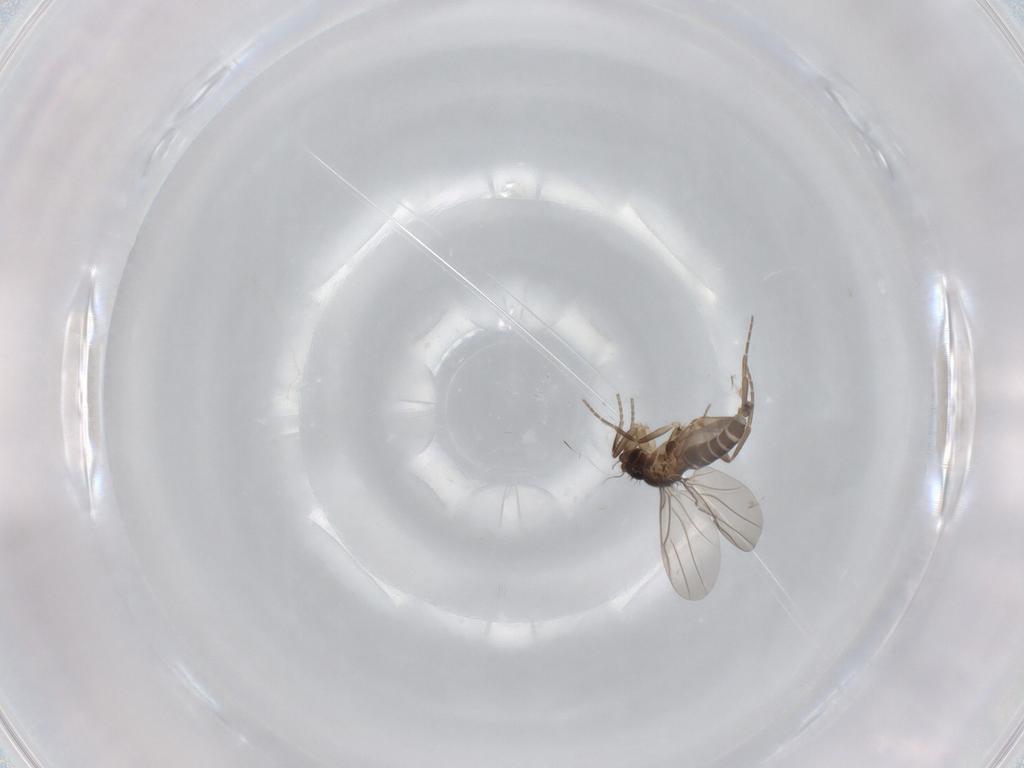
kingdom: Animalia
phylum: Arthropoda
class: Insecta
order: Diptera
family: Phoridae
